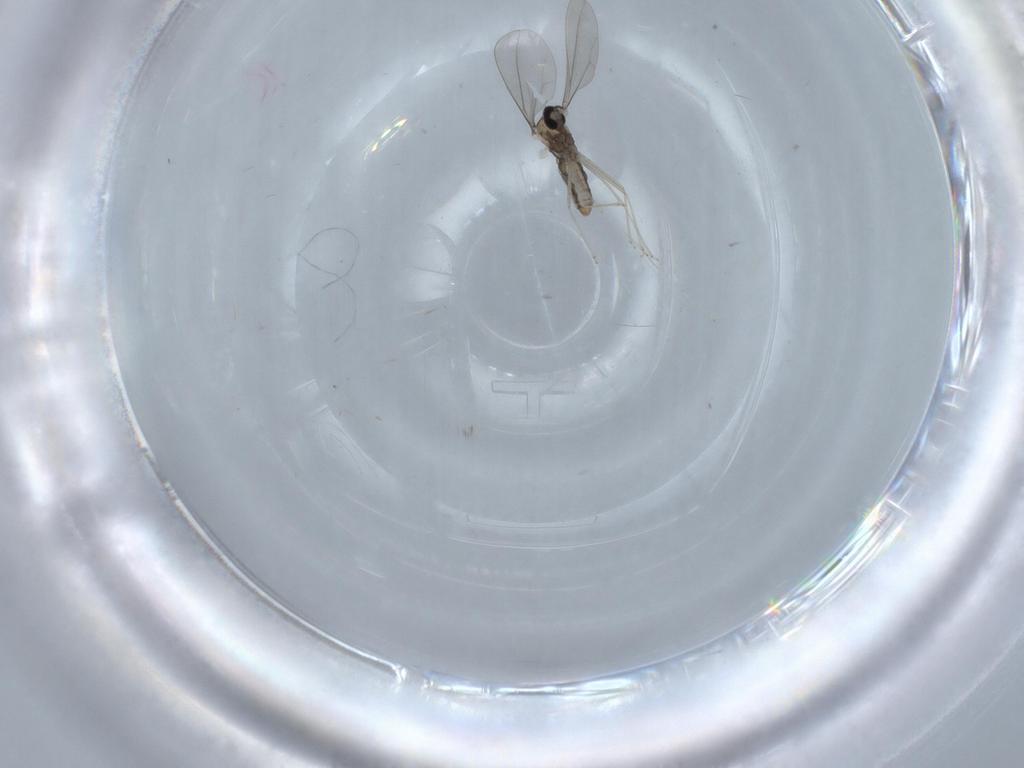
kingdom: Animalia
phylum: Arthropoda
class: Insecta
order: Diptera
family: Cecidomyiidae
